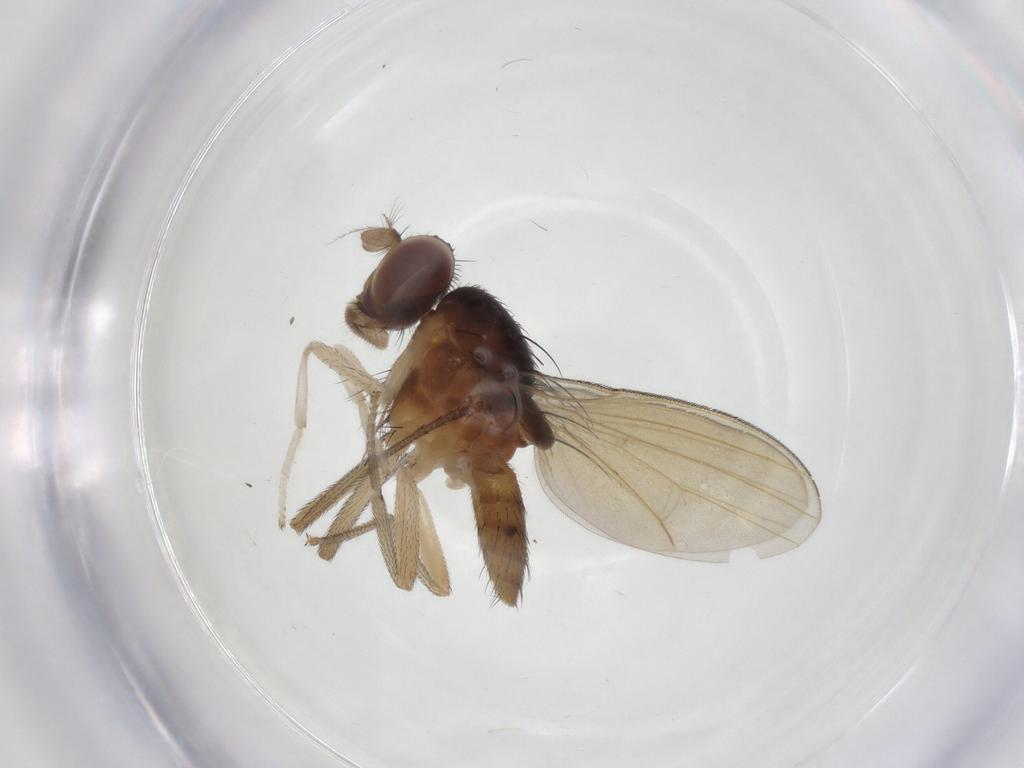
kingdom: Animalia
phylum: Arthropoda
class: Insecta
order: Diptera
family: Lauxaniidae
